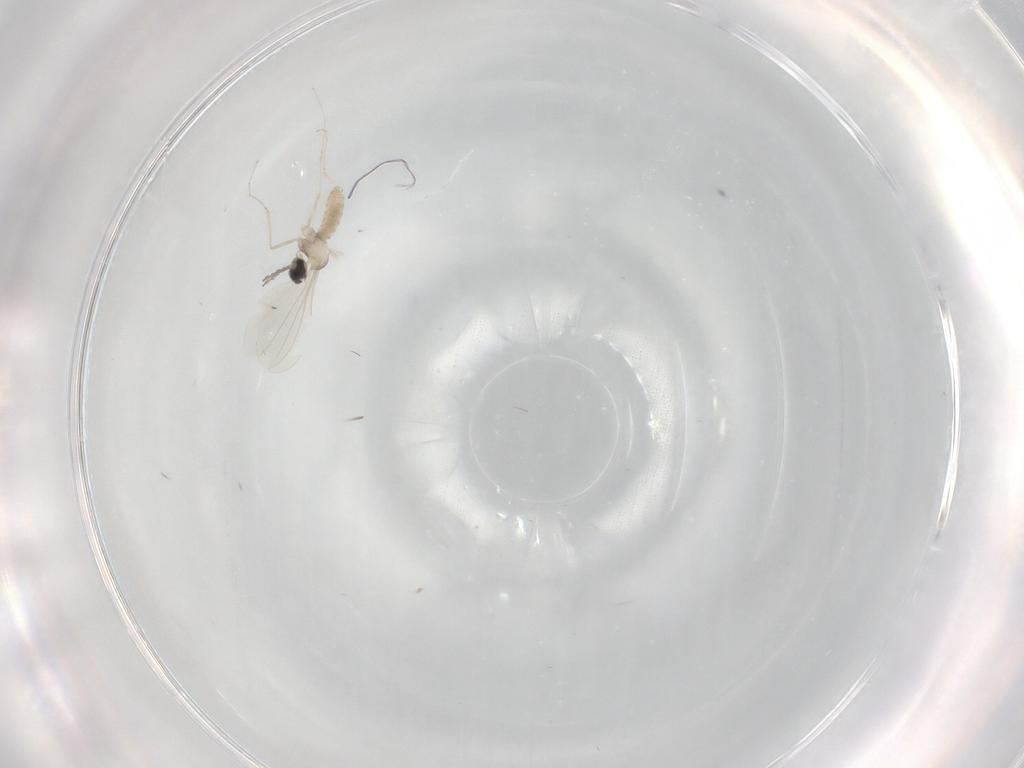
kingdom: Animalia
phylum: Arthropoda
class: Insecta
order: Diptera
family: Cecidomyiidae
